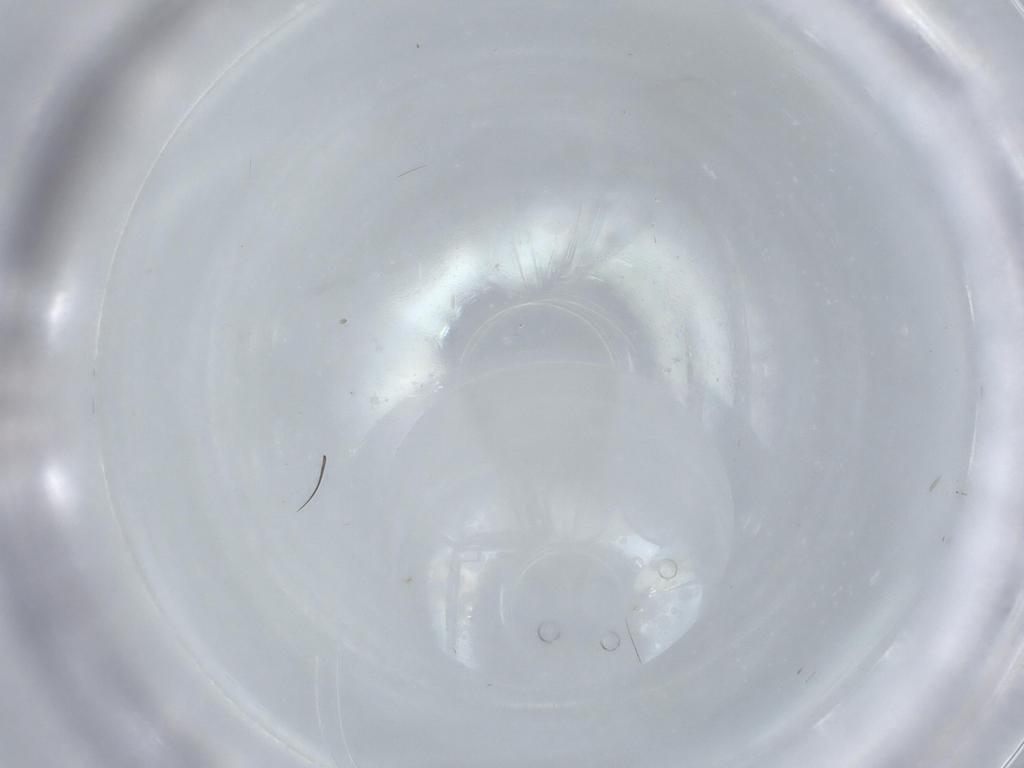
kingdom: Animalia
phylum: Arthropoda
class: Insecta
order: Diptera
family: Cecidomyiidae
